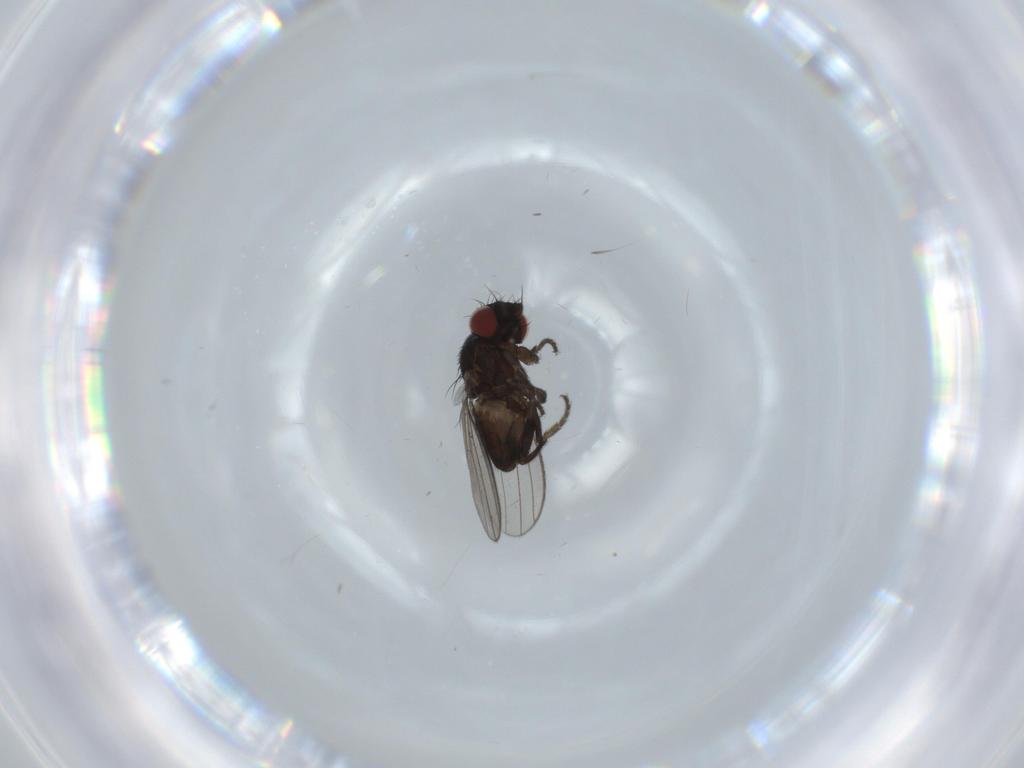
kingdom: Animalia
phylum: Arthropoda
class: Insecta
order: Diptera
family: Milichiidae
